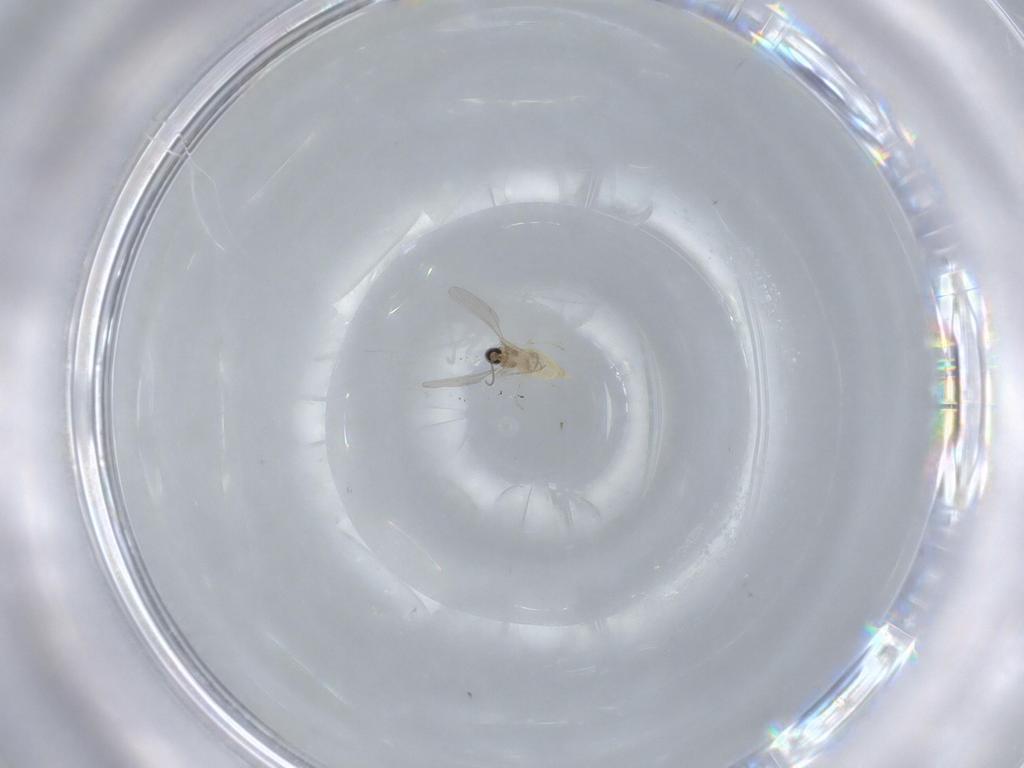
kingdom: Animalia
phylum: Arthropoda
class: Insecta
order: Diptera
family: Cecidomyiidae
